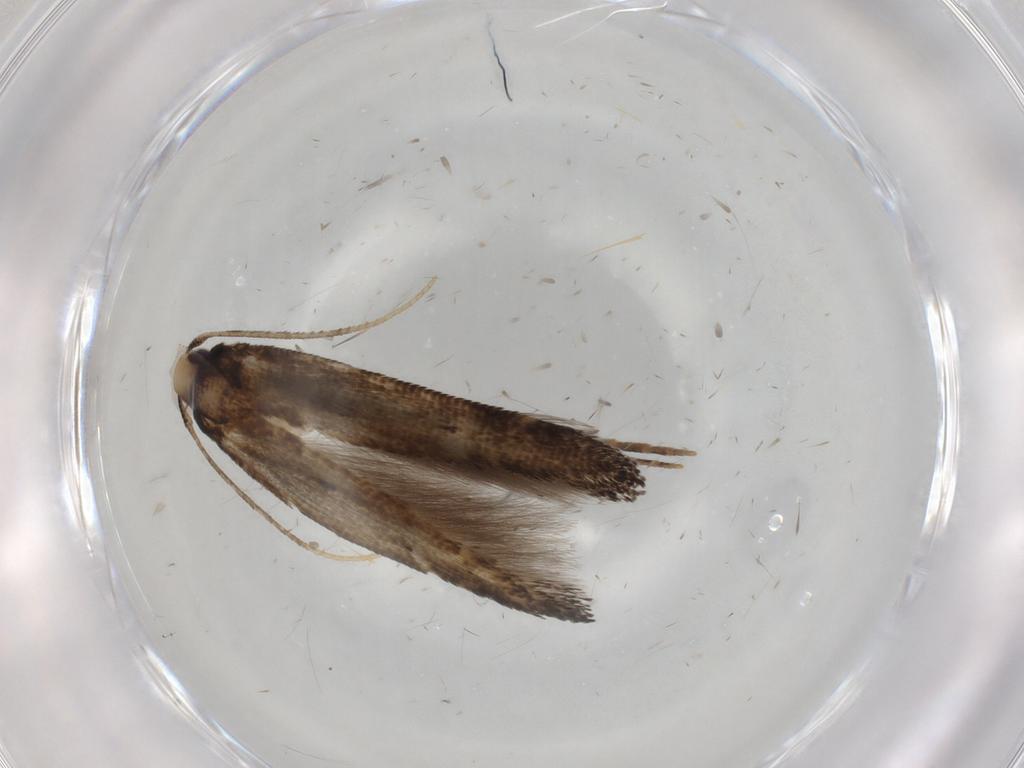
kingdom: Animalia
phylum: Arthropoda
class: Insecta
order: Lepidoptera
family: Cosmopterigidae
